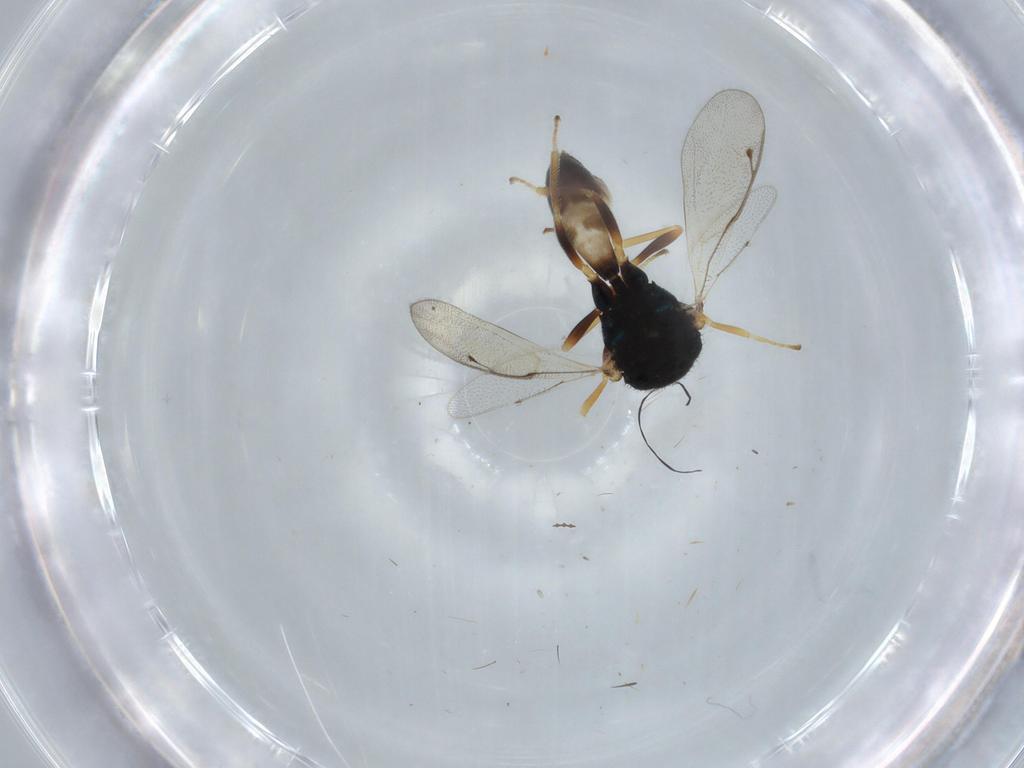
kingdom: Animalia
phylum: Arthropoda
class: Insecta
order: Hymenoptera
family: Agaonidae
